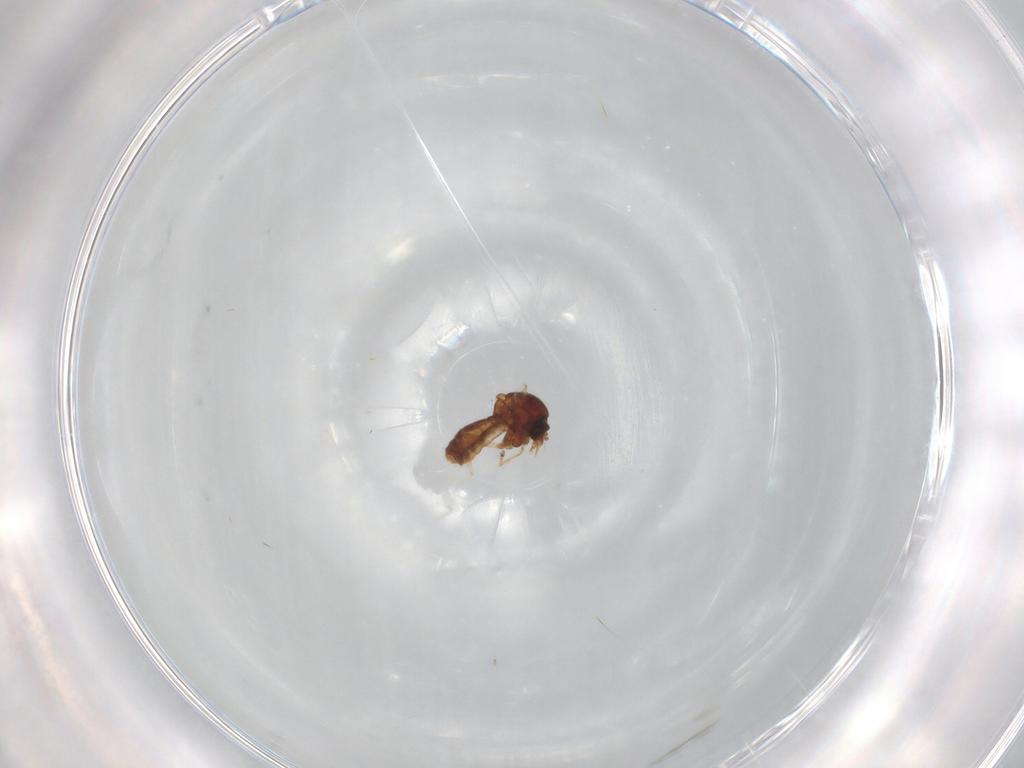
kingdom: Animalia
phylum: Arthropoda
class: Insecta
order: Diptera
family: Ceratopogonidae
